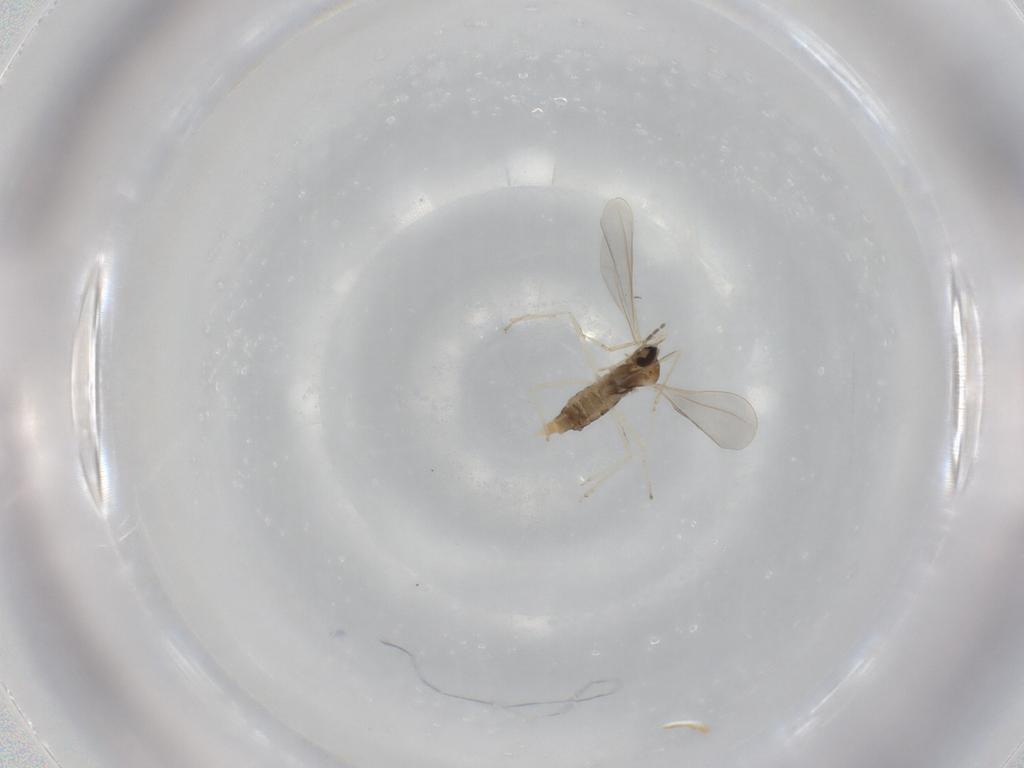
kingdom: Animalia
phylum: Arthropoda
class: Insecta
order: Diptera
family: Cecidomyiidae
